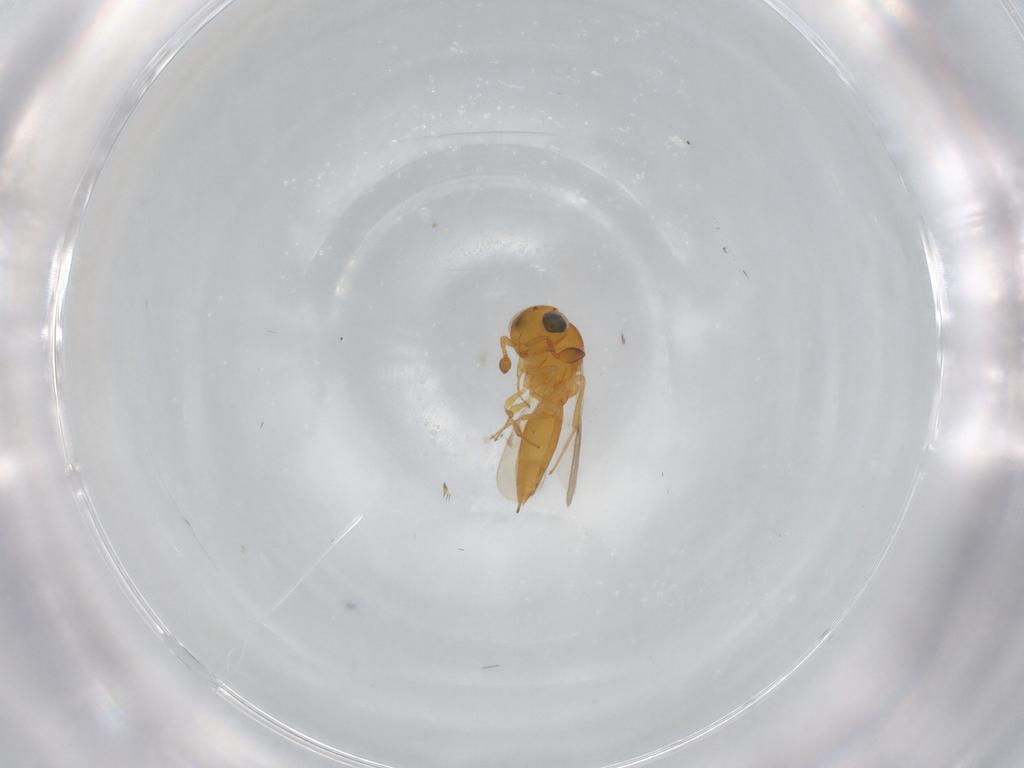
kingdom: Animalia
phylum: Arthropoda
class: Insecta
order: Hymenoptera
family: Scelionidae
